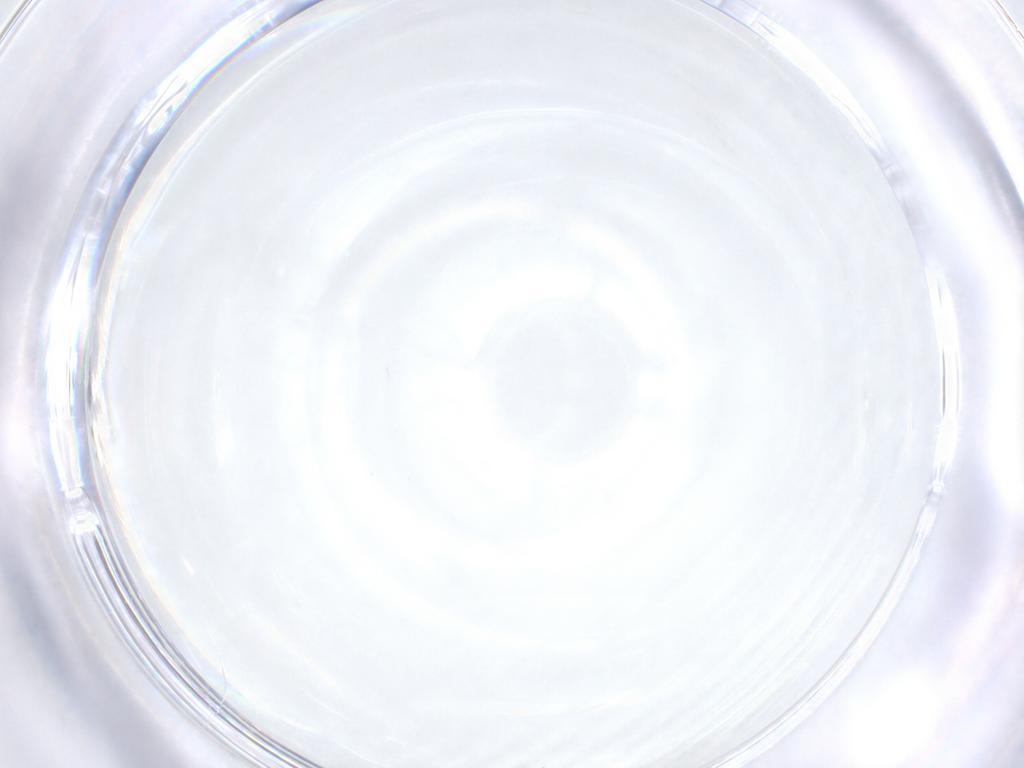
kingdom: Animalia
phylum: Arthropoda
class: Insecta
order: Diptera
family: Sciaridae
